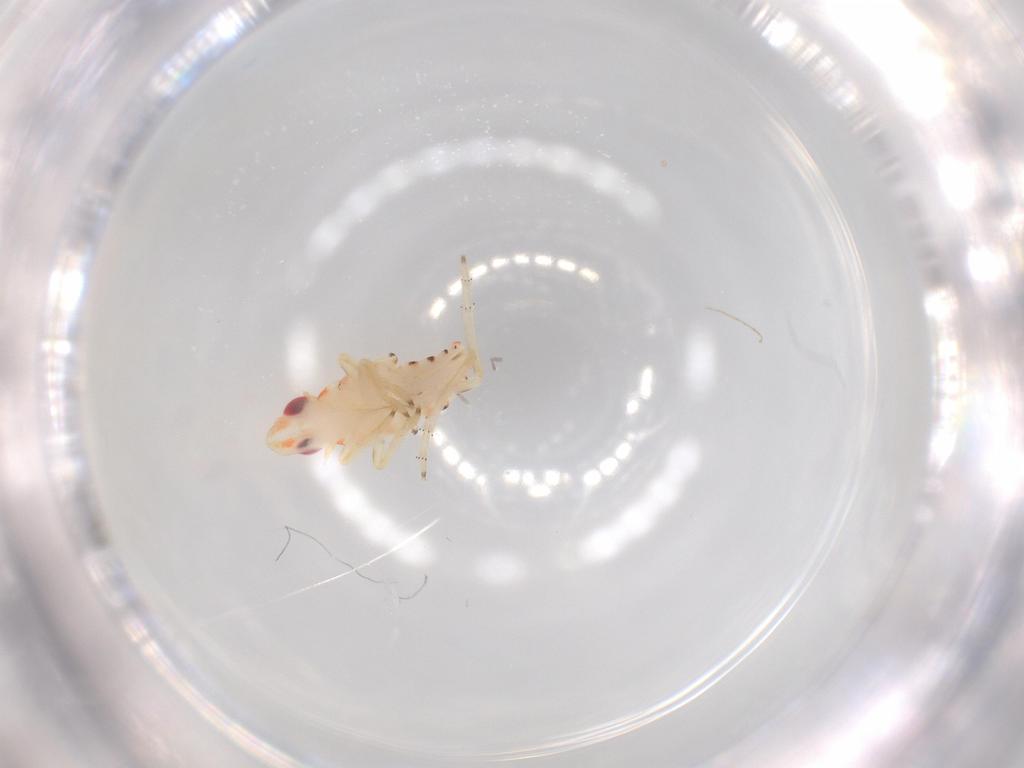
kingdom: Animalia
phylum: Arthropoda
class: Insecta
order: Hemiptera
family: Tropiduchidae
